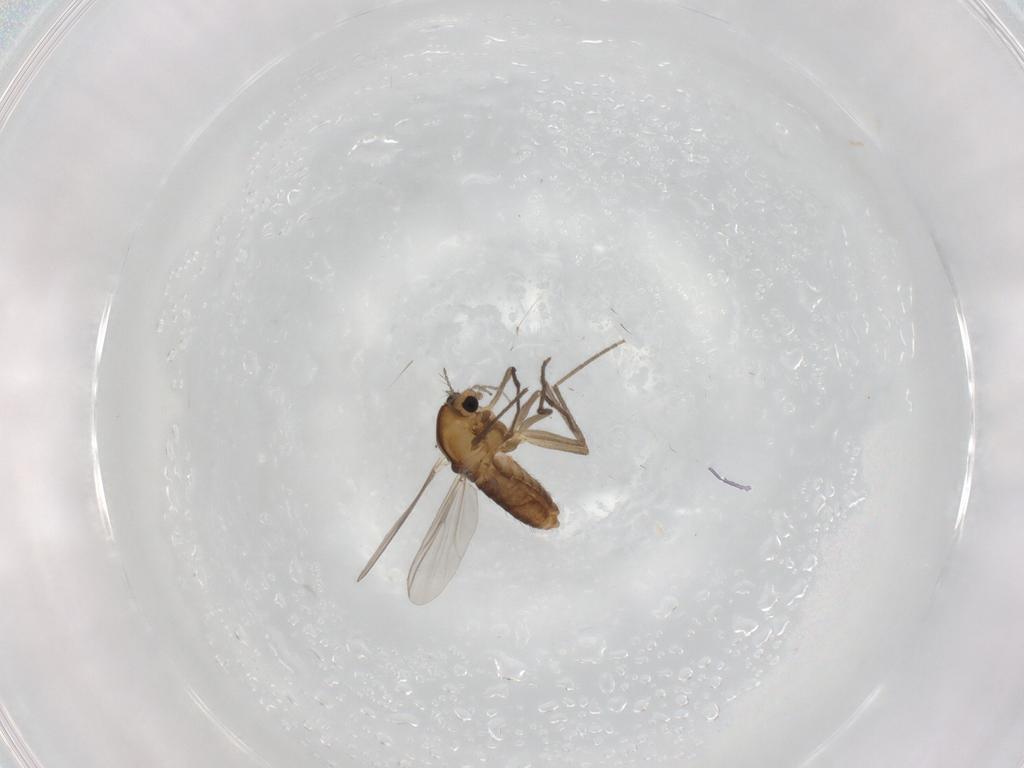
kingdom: Animalia
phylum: Arthropoda
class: Insecta
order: Diptera
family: Chironomidae
